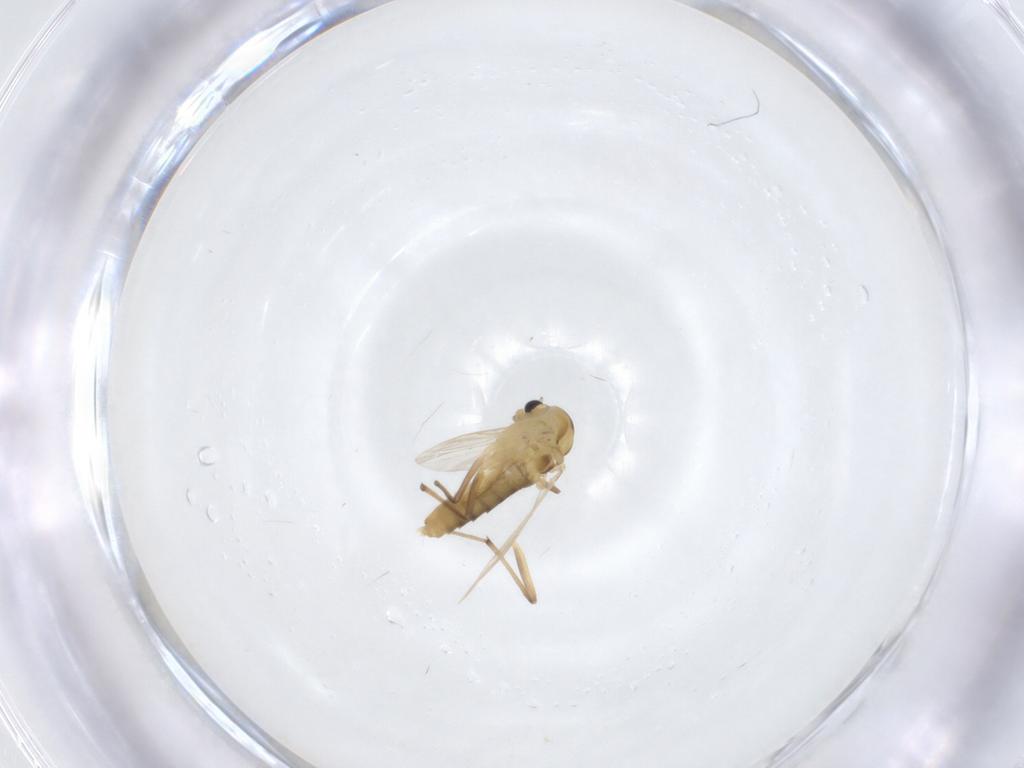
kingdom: Animalia
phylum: Arthropoda
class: Insecta
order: Diptera
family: Chironomidae
